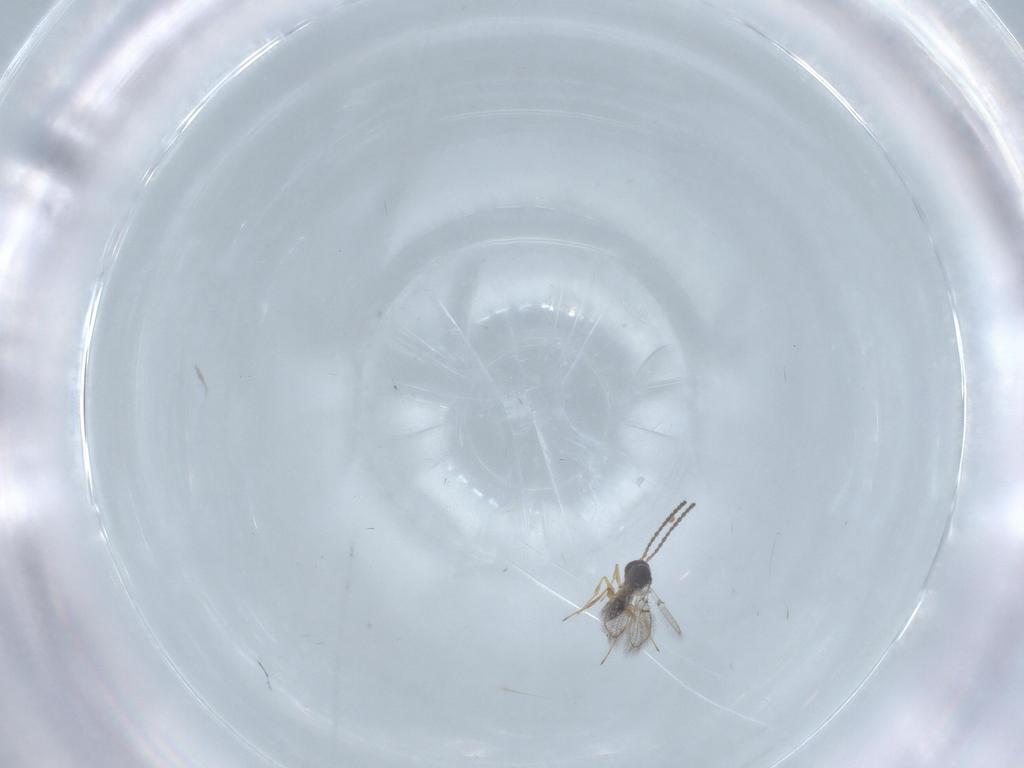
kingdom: Animalia
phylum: Arthropoda
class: Insecta
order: Hymenoptera
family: Figitidae
